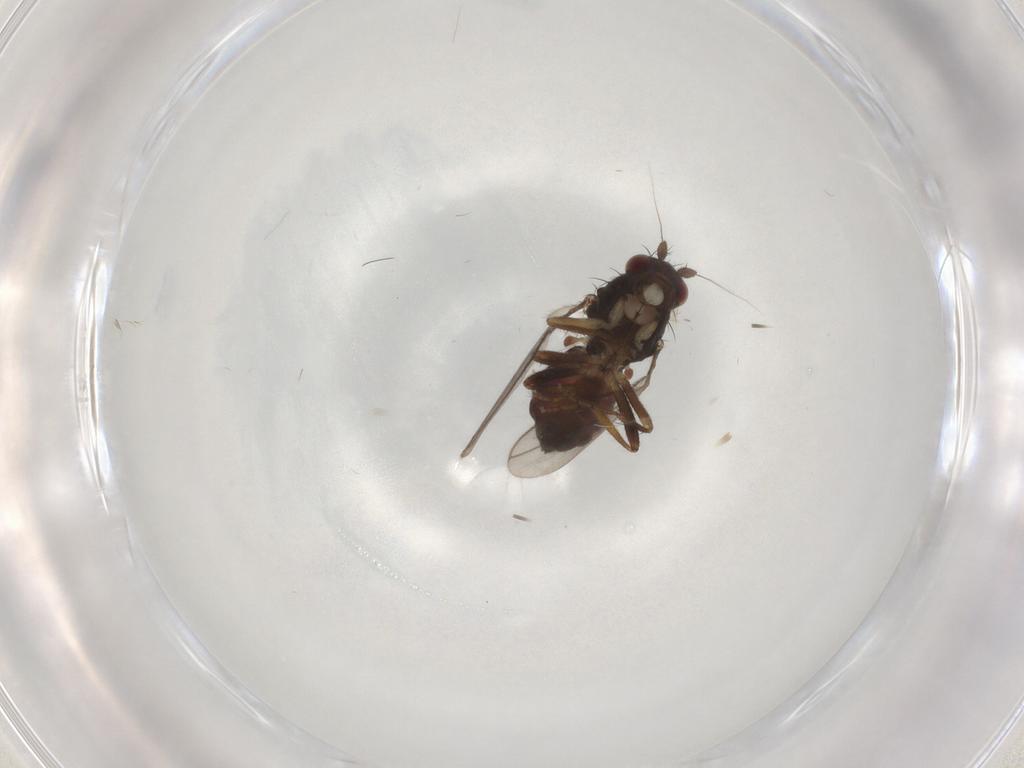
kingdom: Animalia
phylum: Arthropoda
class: Insecta
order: Diptera
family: Sphaeroceridae
